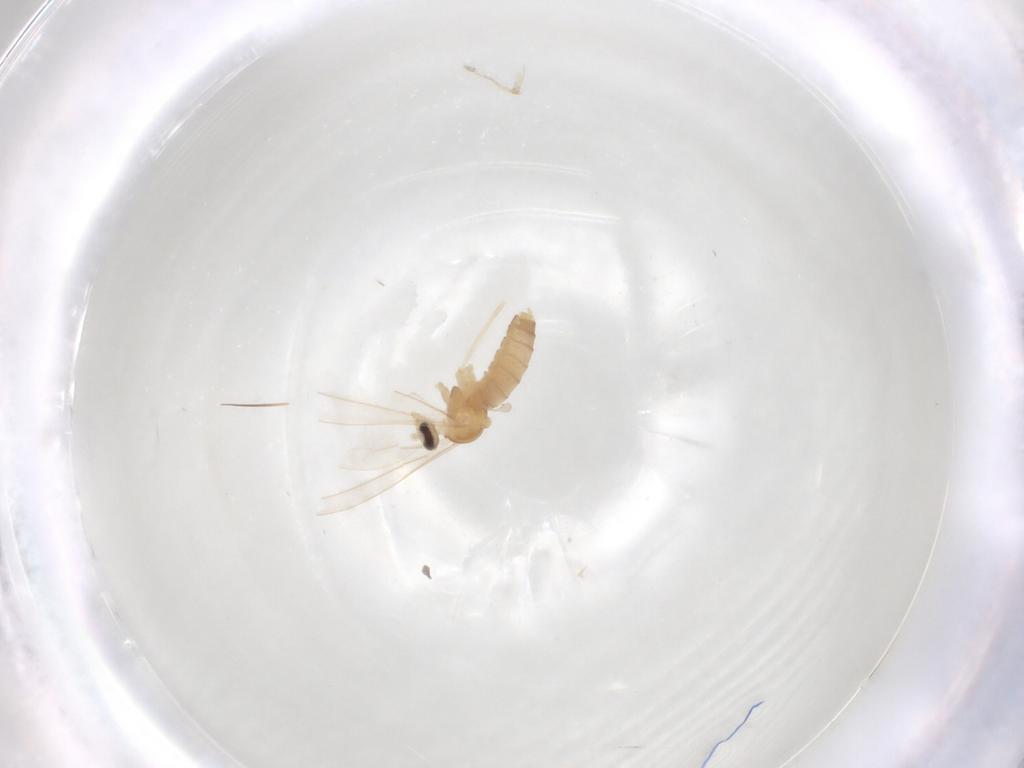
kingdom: Animalia
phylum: Arthropoda
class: Insecta
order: Diptera
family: Cecidomyiidae
